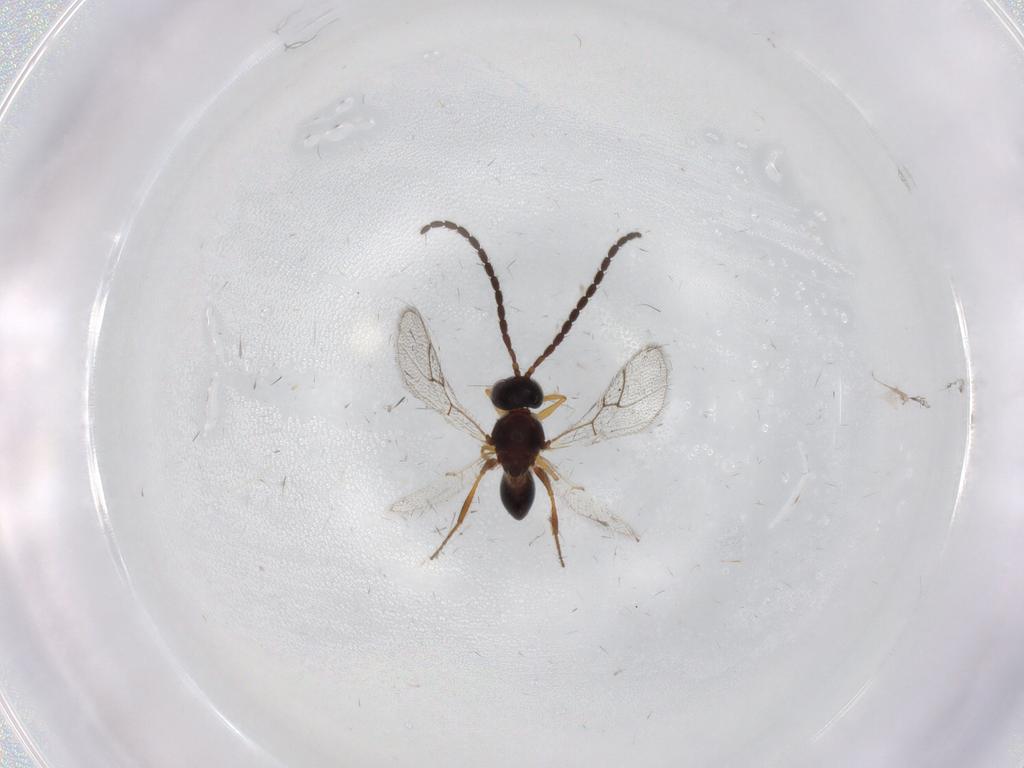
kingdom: Animalia
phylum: Arthropoda
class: Insecta
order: Hymenoptera
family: Figitidae
